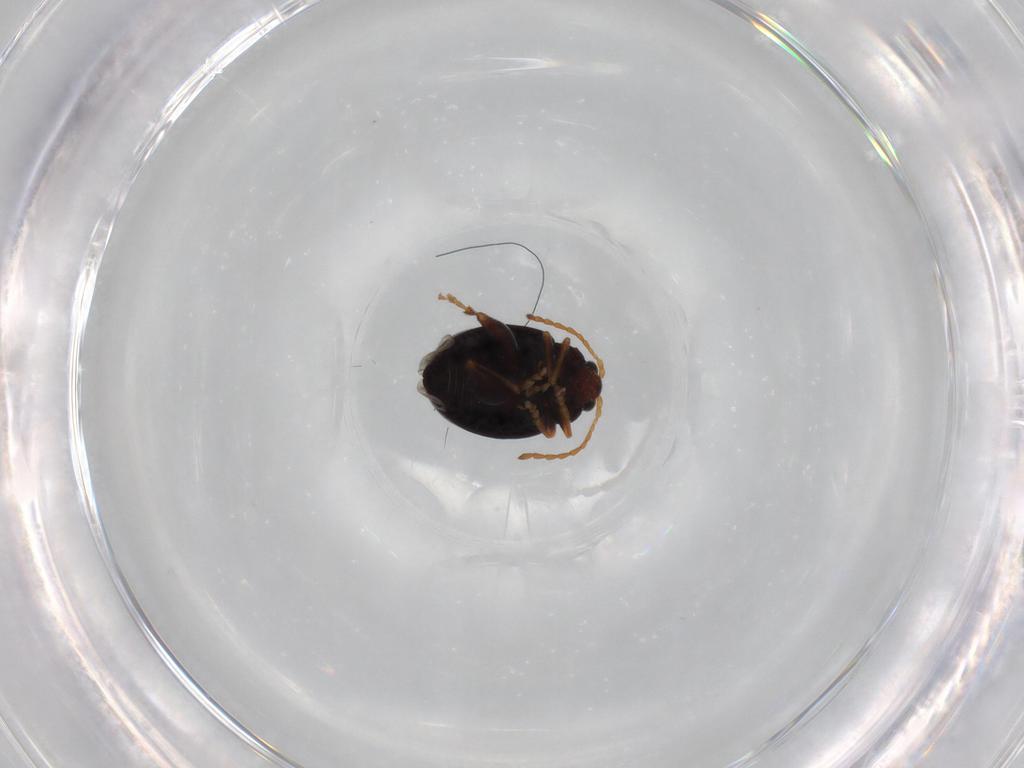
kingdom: Animalia
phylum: Arthropoda
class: Insecta
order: Coleoptera
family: Chrysomelidae
